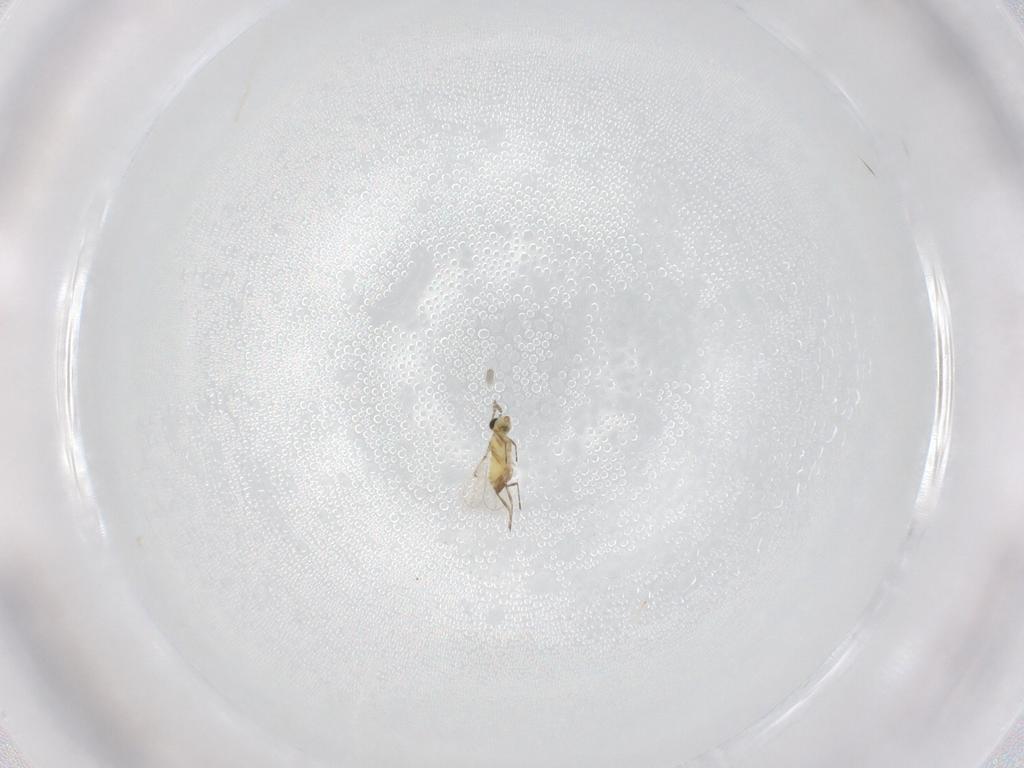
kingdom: Animalia
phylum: Arthropoda
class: Insecta
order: Hymenoptera
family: Trichogrammatidae
